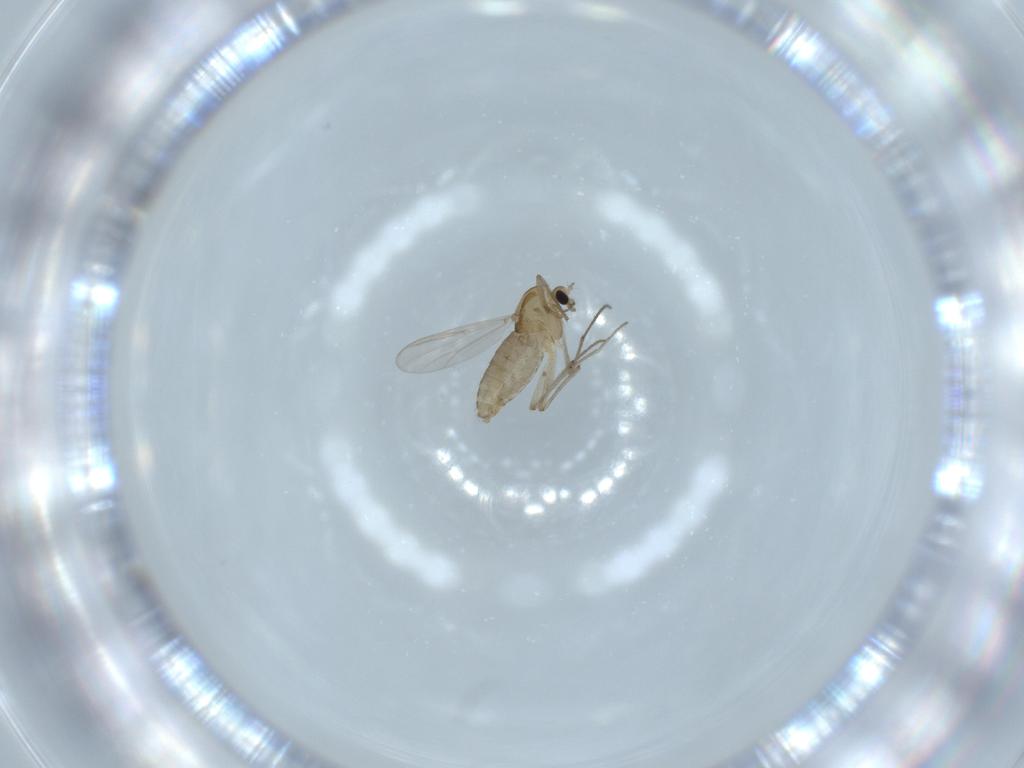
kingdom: Animalia
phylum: Arthropoda
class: Insecta
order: Diptera
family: Chironomidae
